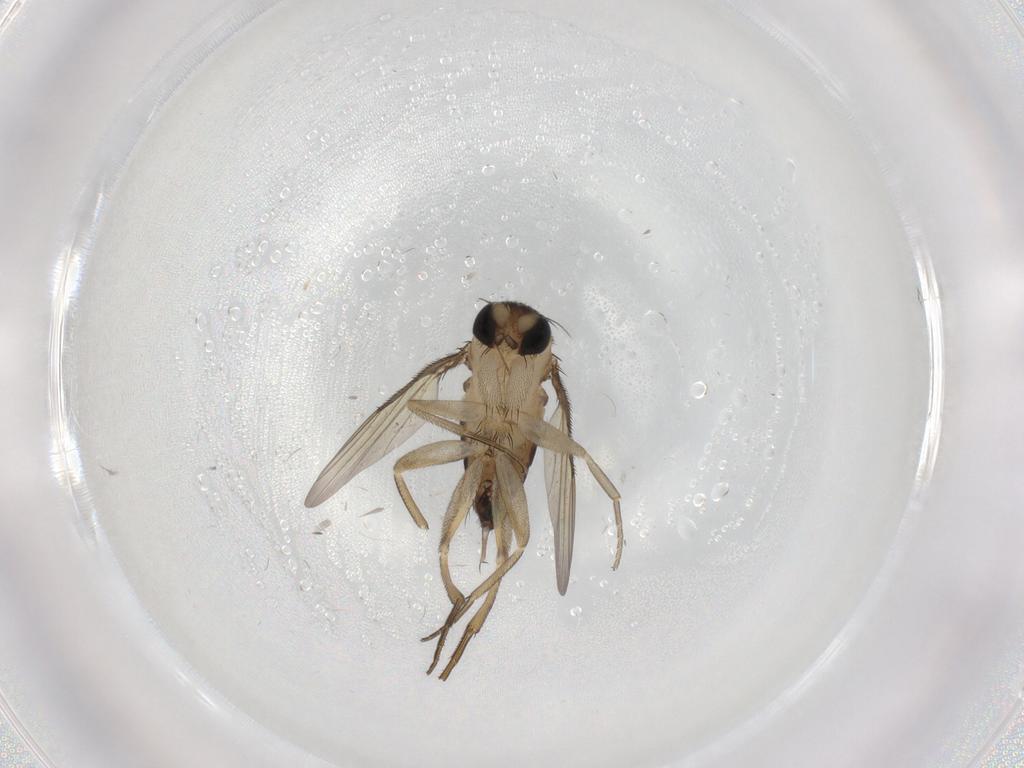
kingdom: Animalia
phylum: Arthropoda
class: Insecta
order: Diptera
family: Phoridae
